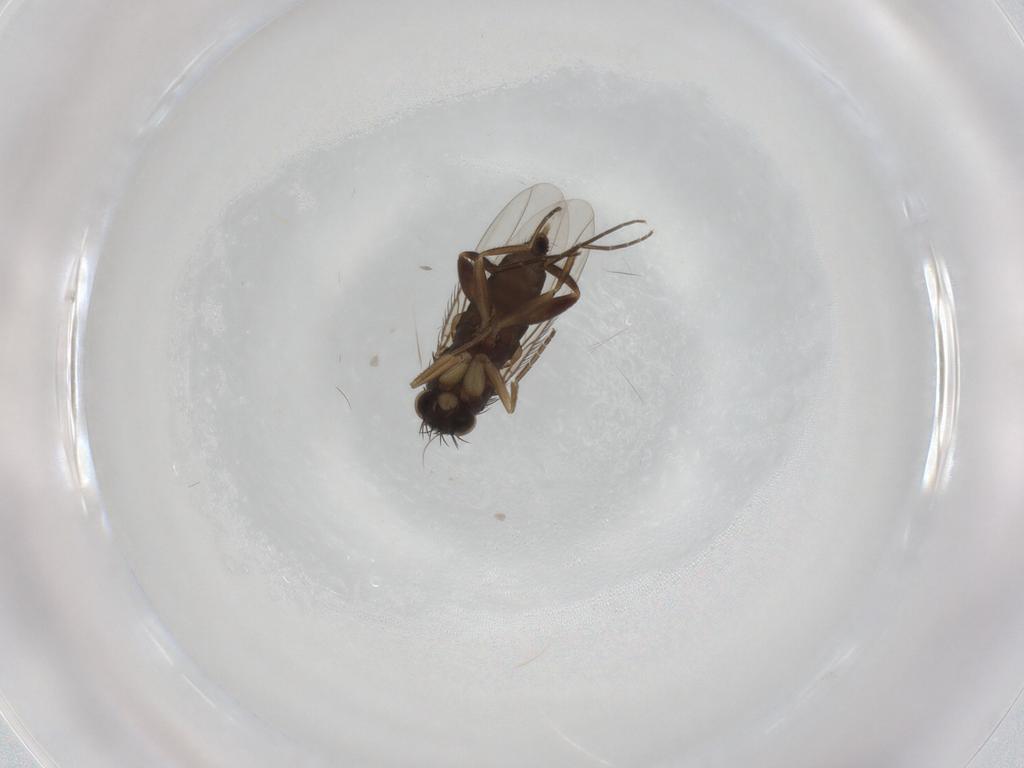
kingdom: Animalia
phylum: Arthropoda
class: Insecta
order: Diptera
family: Phoridae
